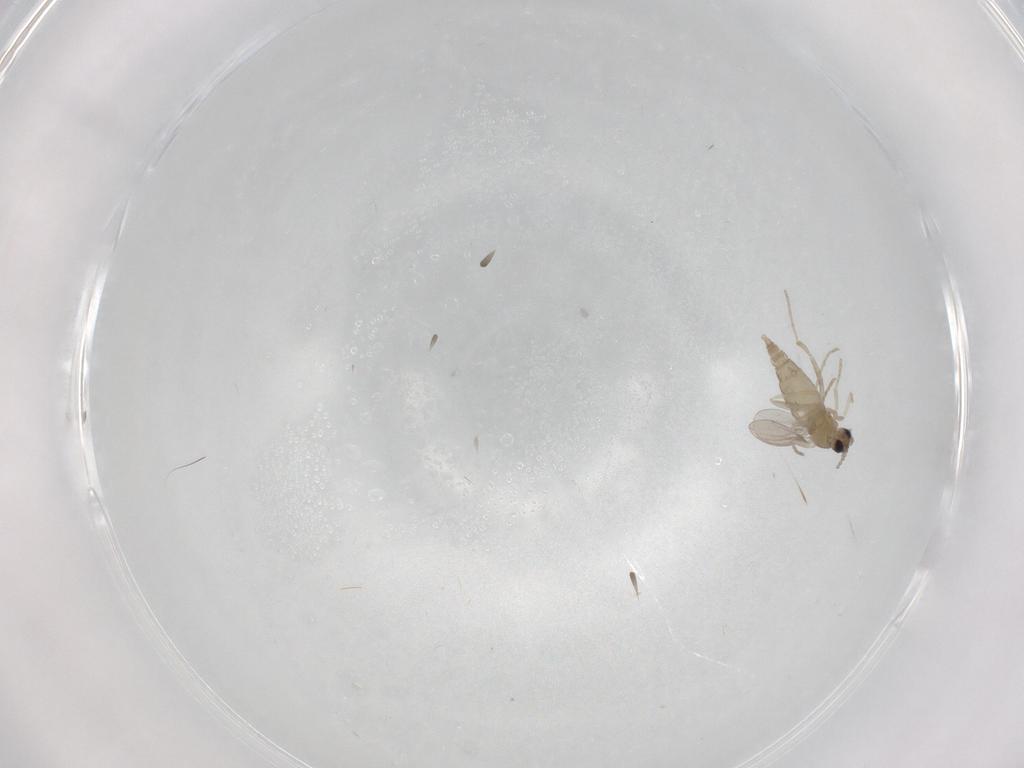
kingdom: Animalia
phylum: Arthropoda
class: Insecta
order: Diptera
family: Cecidomyiidae
